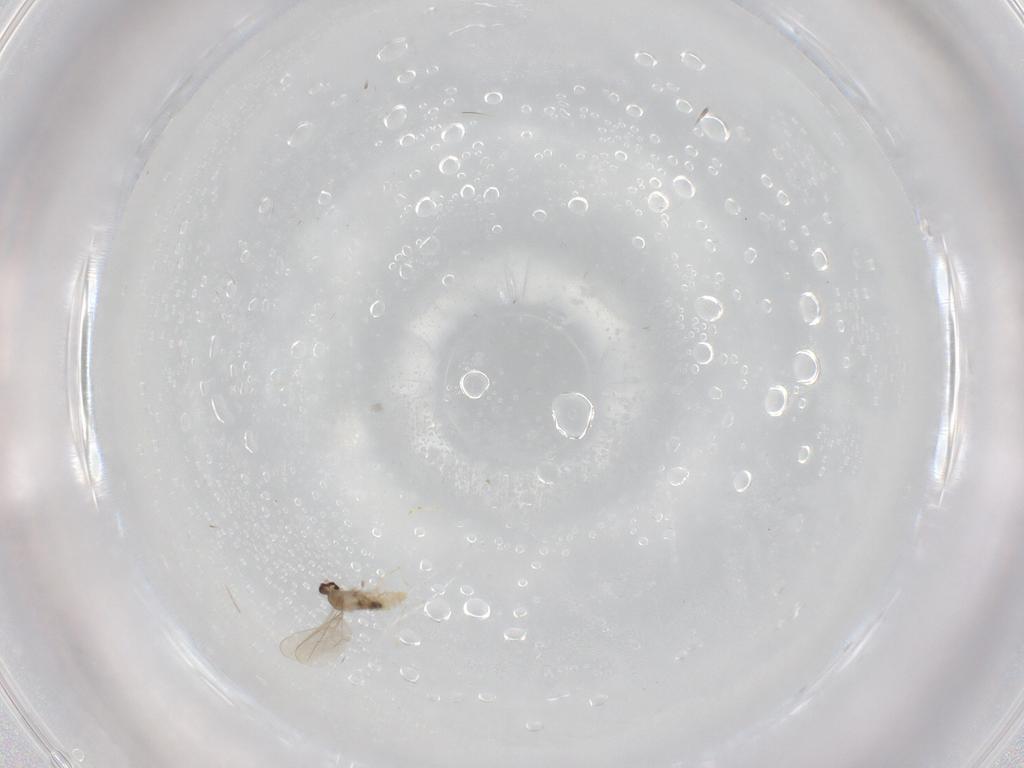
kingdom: Animalia
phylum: Arthropoda
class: Insecta
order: Diptera
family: Cecidomyiidae
